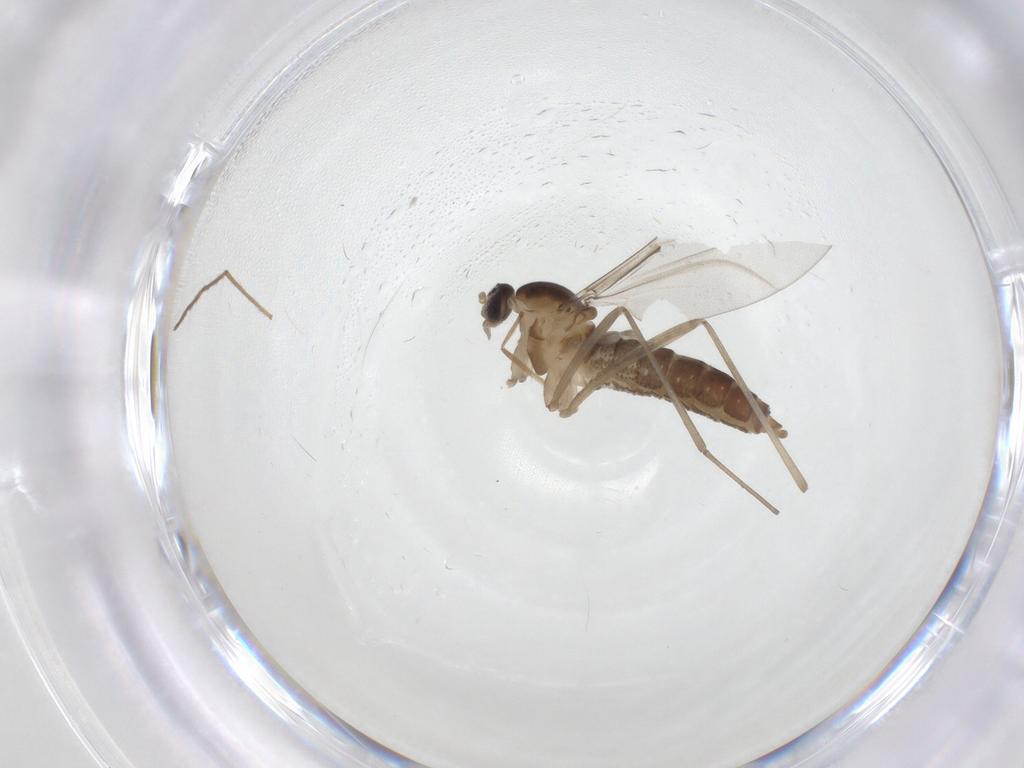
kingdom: Animalia
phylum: Arthropoda
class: Insecta
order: Diptera
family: Cecidomyiidae
